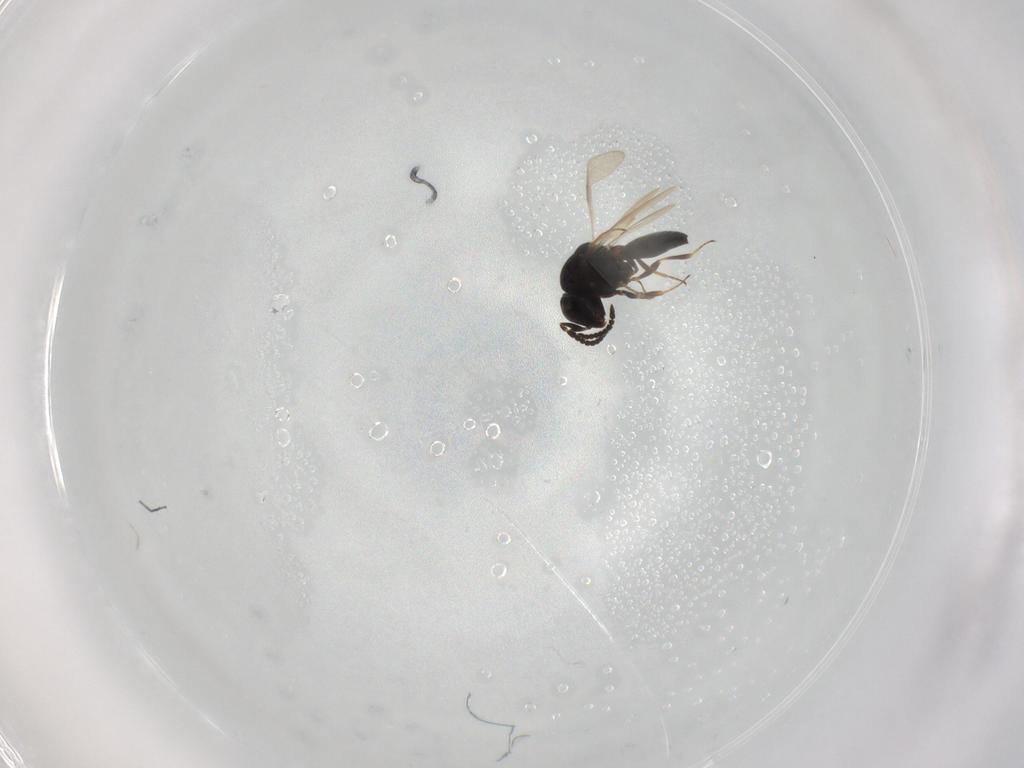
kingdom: Animalia
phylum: Arthropoda
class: Insecta
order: Hymenoptera
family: Scelionidae
